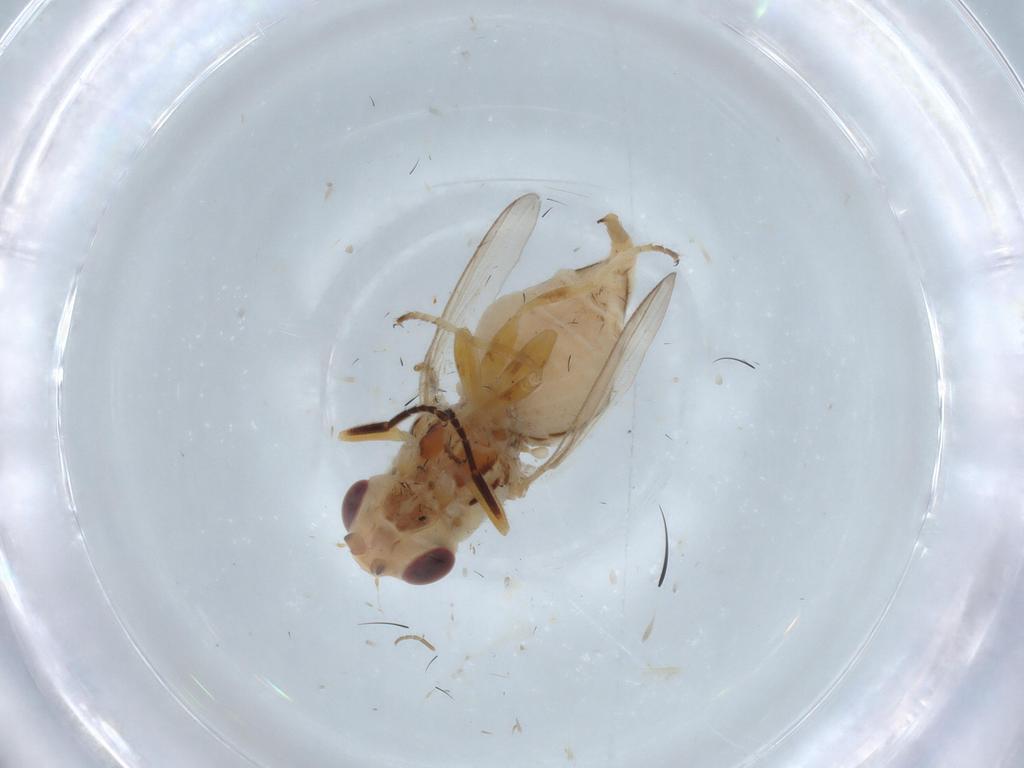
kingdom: Animalia
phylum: Arthropoda
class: Insecta
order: Diptera
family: Chloropidae
